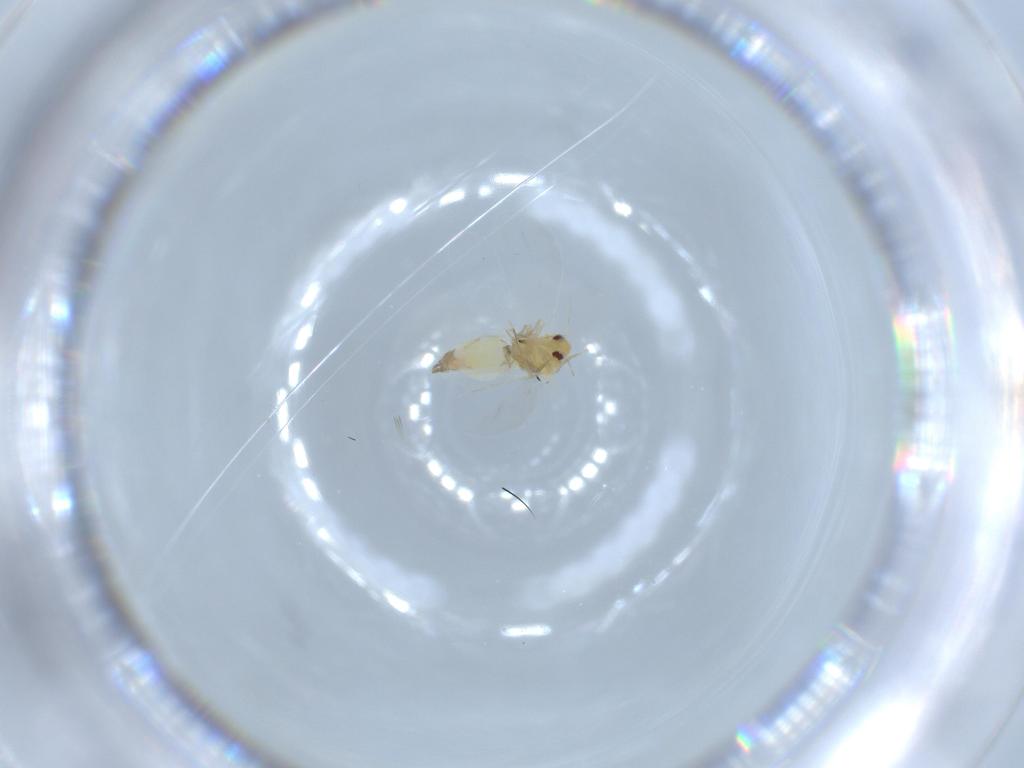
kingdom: Animalia
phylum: Arthropoda
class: Insecta
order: Hemiptera
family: Aleyrodidae
